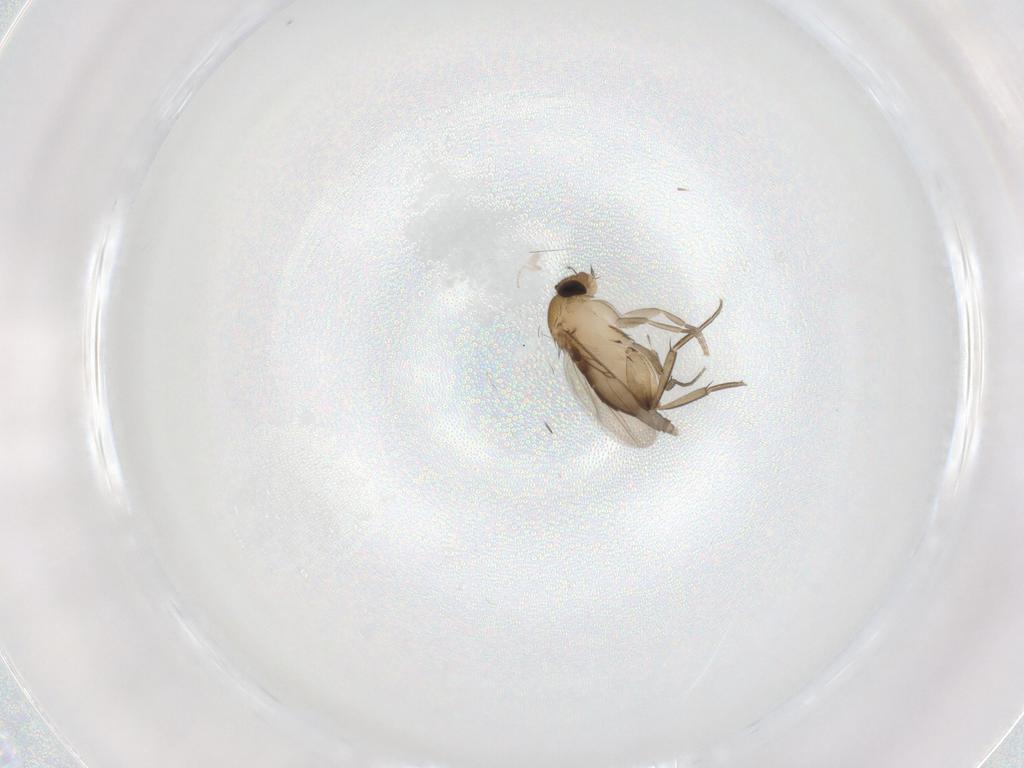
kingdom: Animalia
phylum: Arthropoda
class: Insecta
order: Diptera
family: Phoridae
